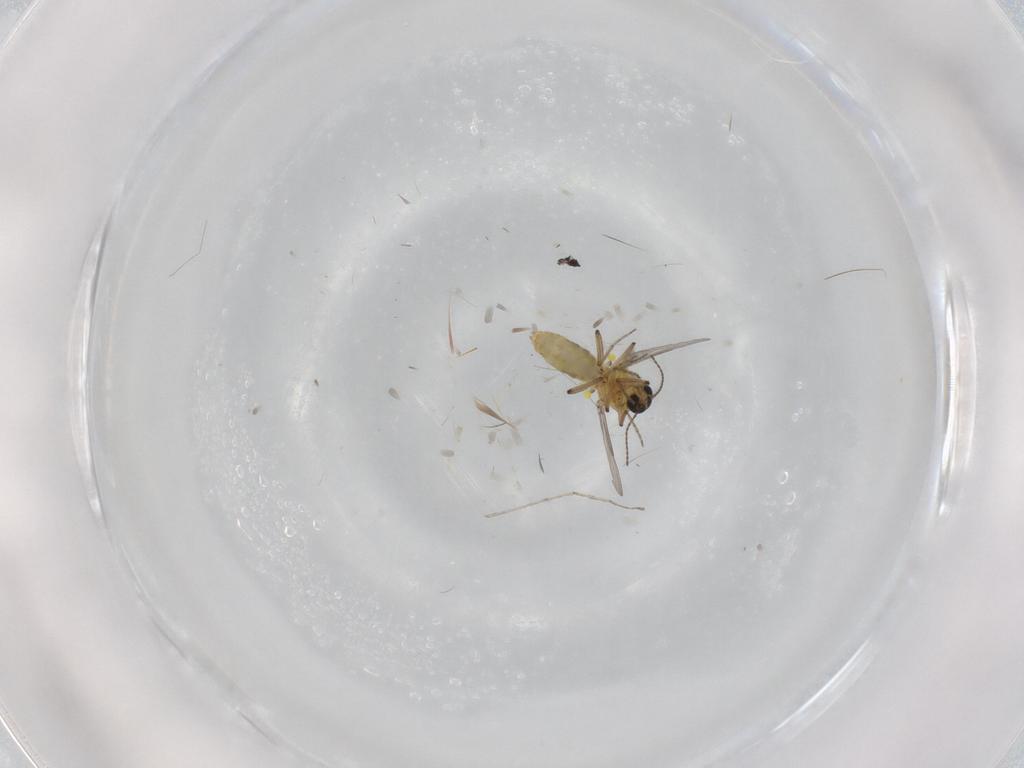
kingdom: Animalia
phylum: Arthropoda
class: Insecta
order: Diptera
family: Ceratopogonidae
